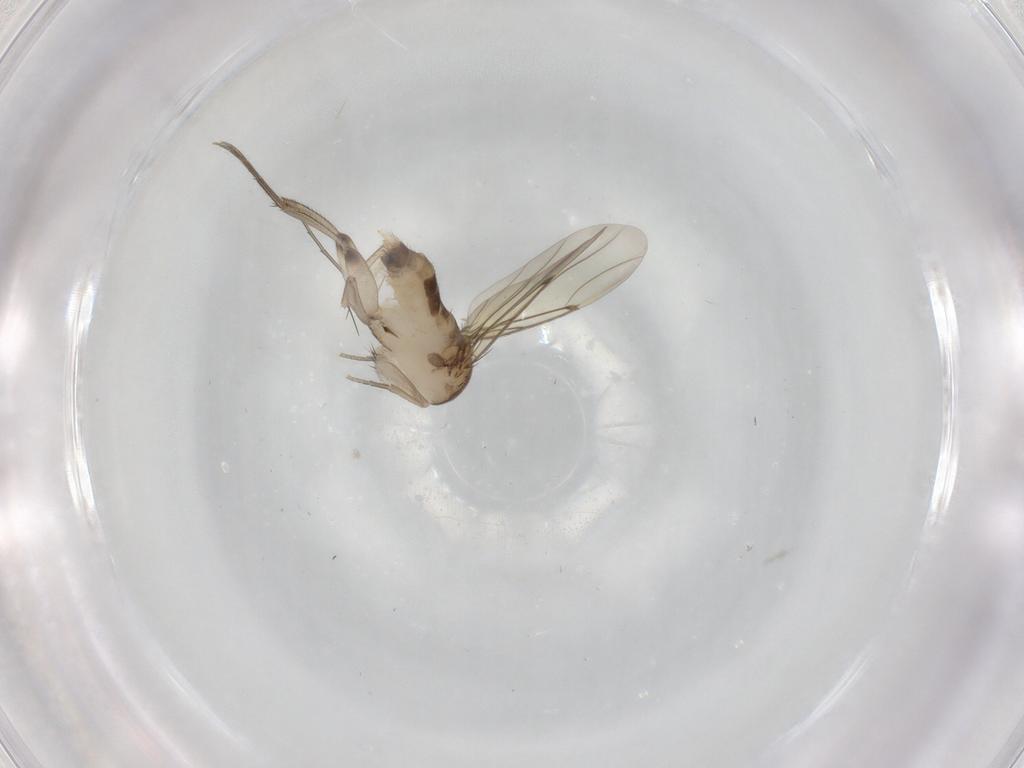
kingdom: Animalia
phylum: Arthropoda
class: Insecta
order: Diptera
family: Phoridae
